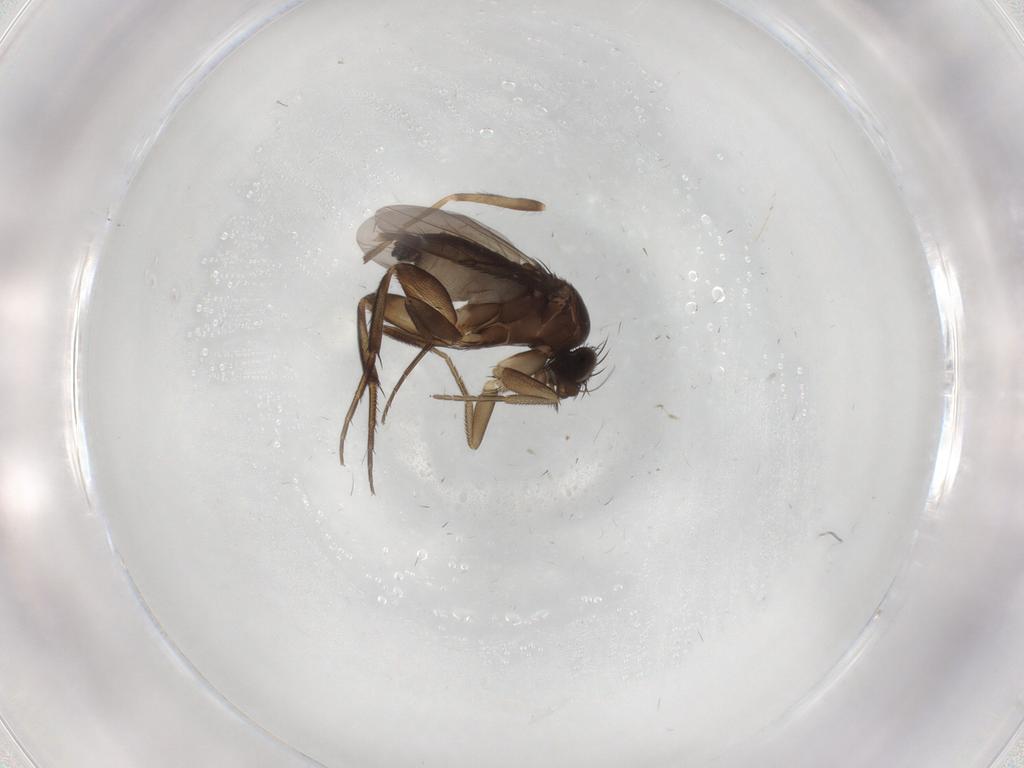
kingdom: Animalia
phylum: Arthropoda
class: Insecta
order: Diptera
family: Phoridae
